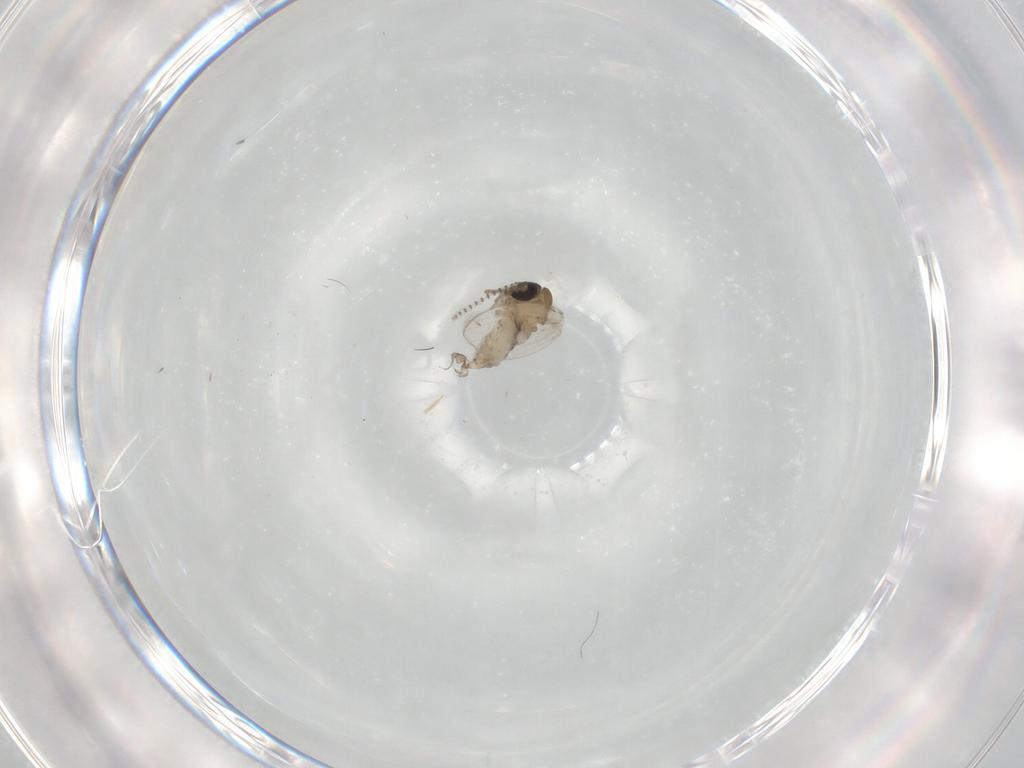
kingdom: Animalia
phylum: Arthropoda
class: Insecta
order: Diptera
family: Psychodidae
